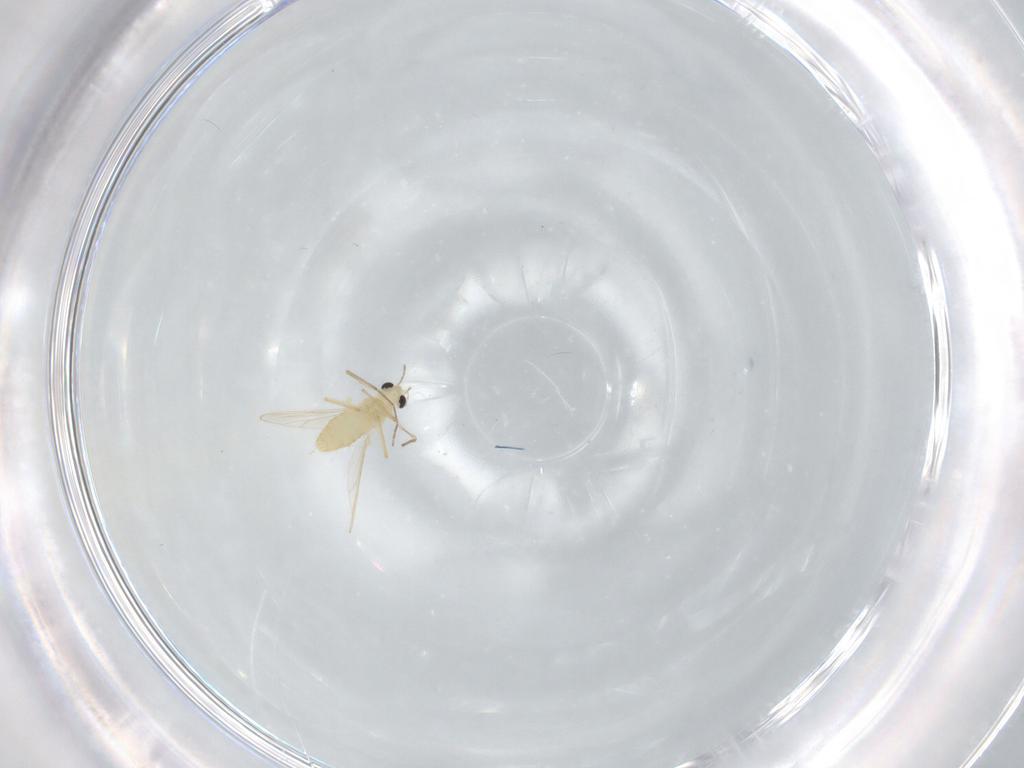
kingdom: Animalia
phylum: Arthropoda
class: Insecta
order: Diptera
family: Chironomidae
